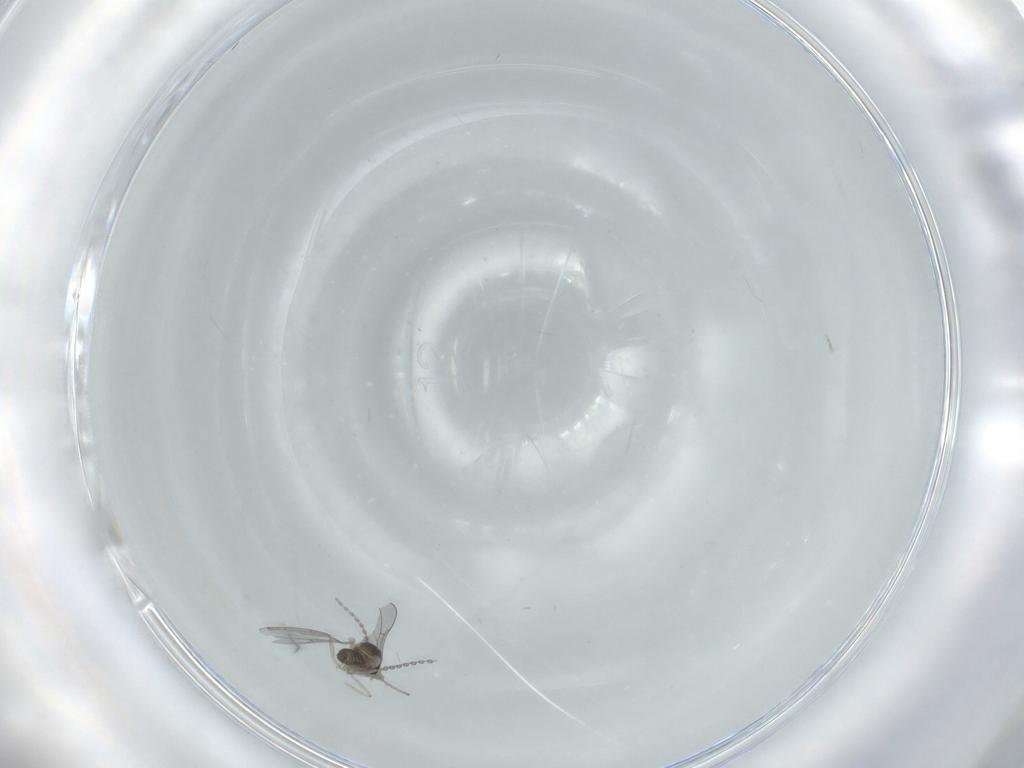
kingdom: Animalia
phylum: Arthropoda
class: Insecta
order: Diptera
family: Cecidomyiidae
